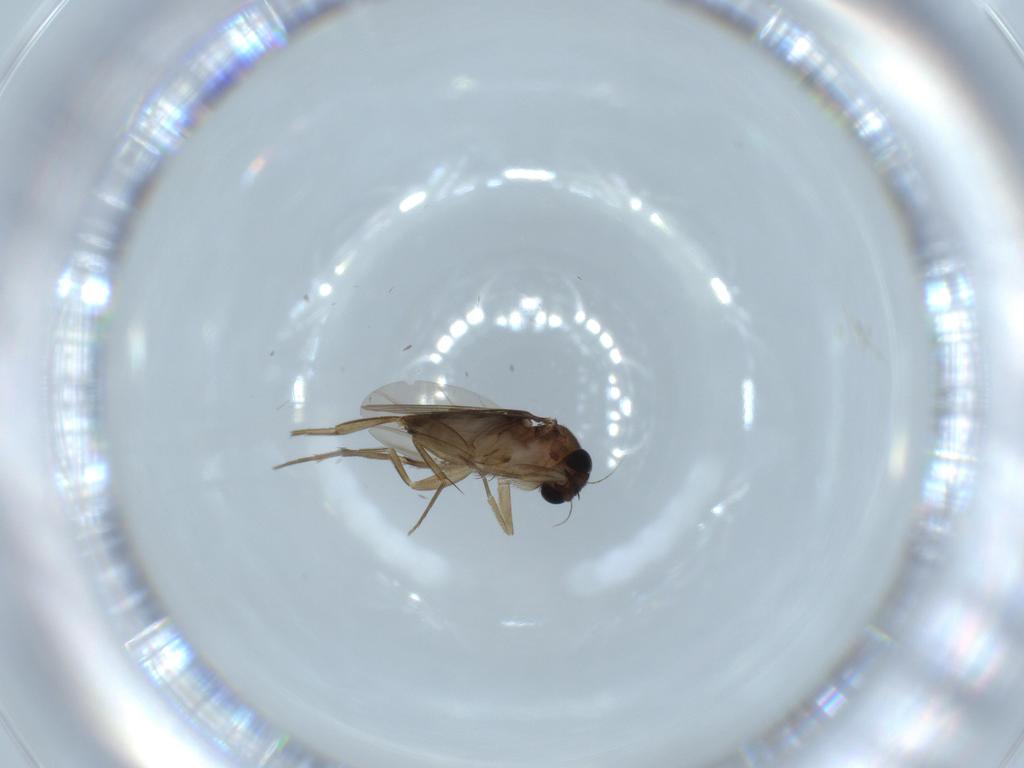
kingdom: Animalia
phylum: Arthropoda
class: Insecta
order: Diptera
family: Phoridae
